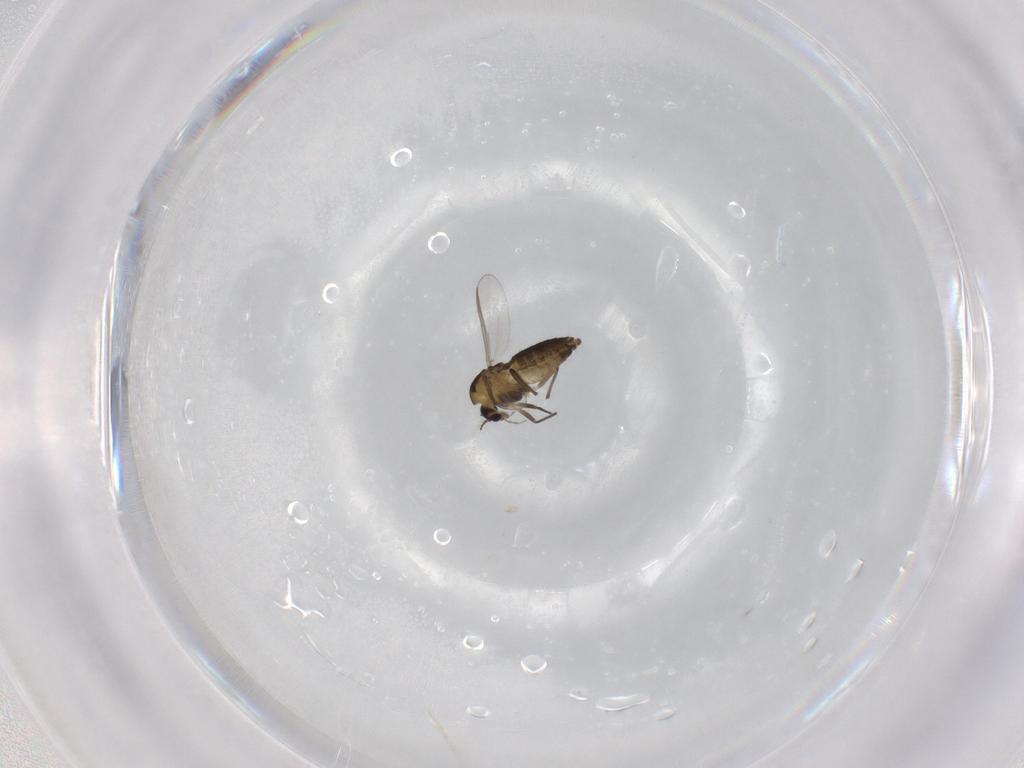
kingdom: Animalia
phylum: Arthropoda
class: Insecta
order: Diptera
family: Chironomidae
